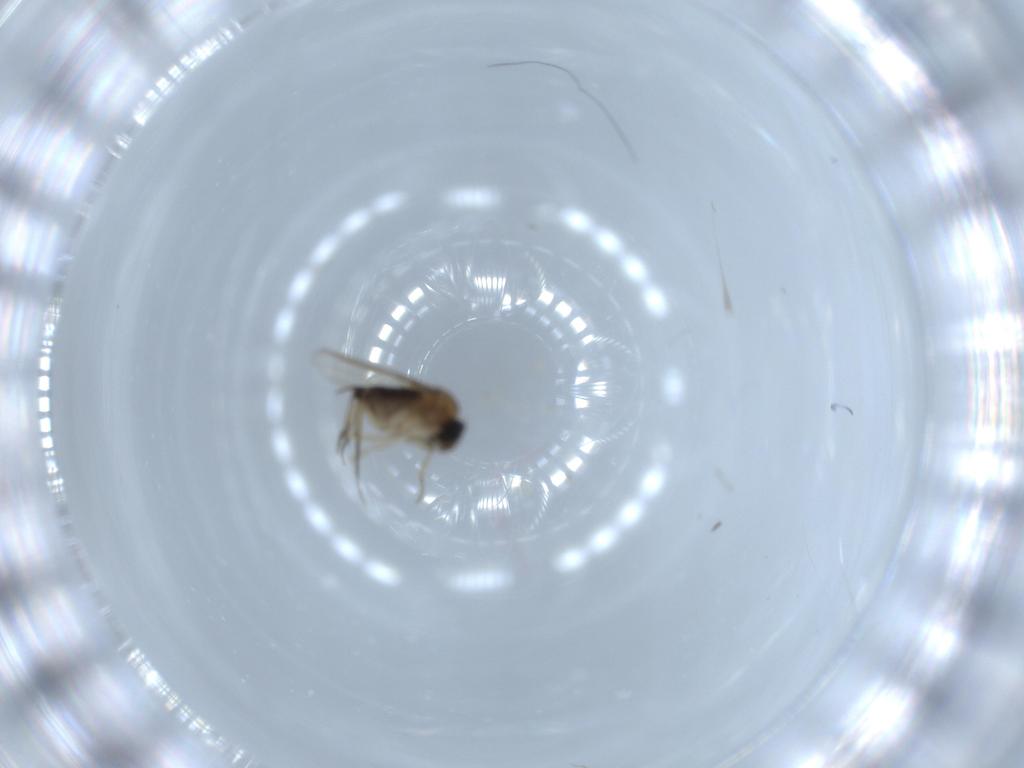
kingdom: Animalia
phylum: Arthropoda
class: Insecta
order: Diptera
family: Phoridae
